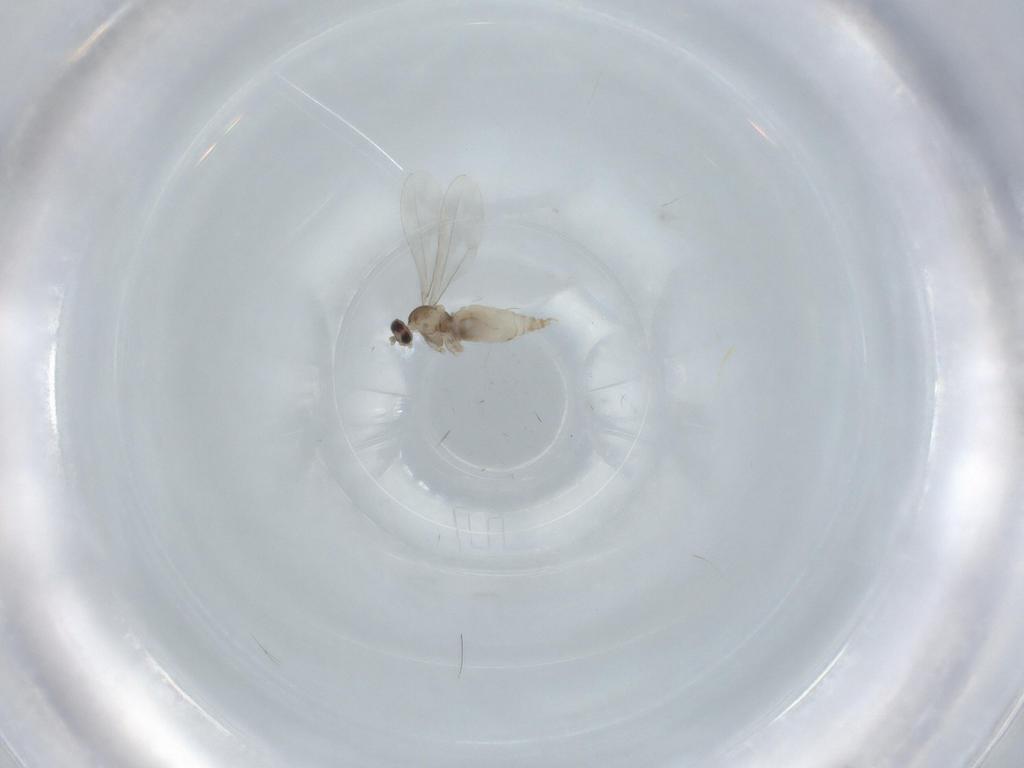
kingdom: Animalia
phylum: Arthropoda
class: Insecta
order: Diptera
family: Cecidomyiidae
